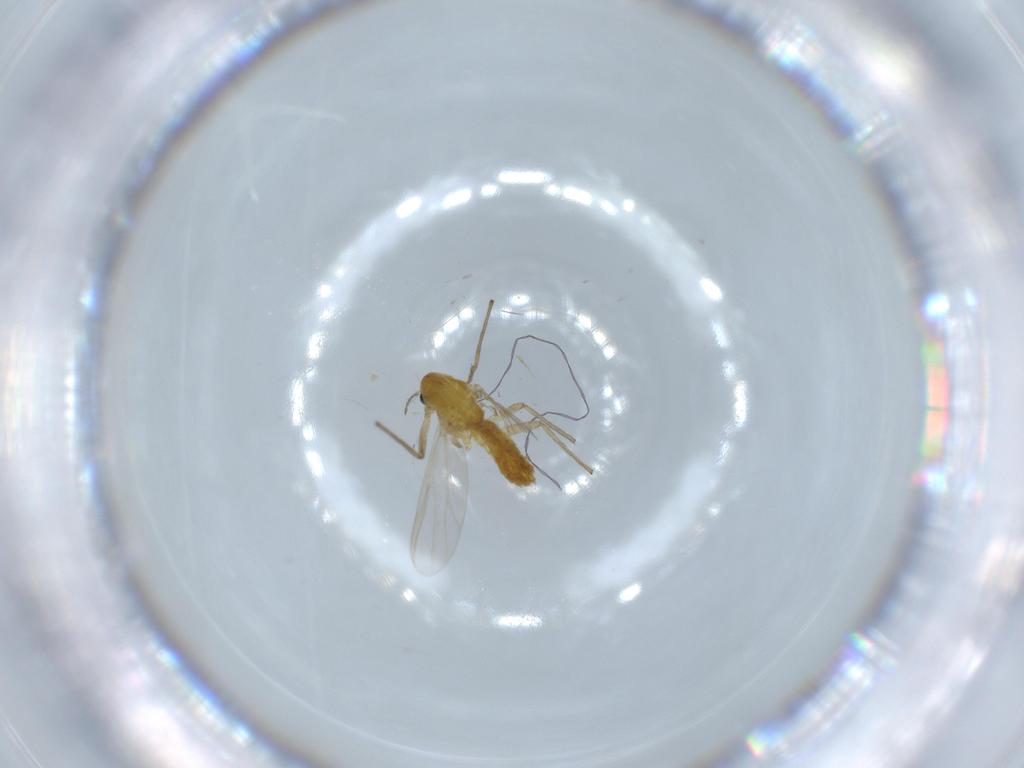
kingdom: Animalia
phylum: Arthropoda
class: Insecta
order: Diptera
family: Chironomidae
